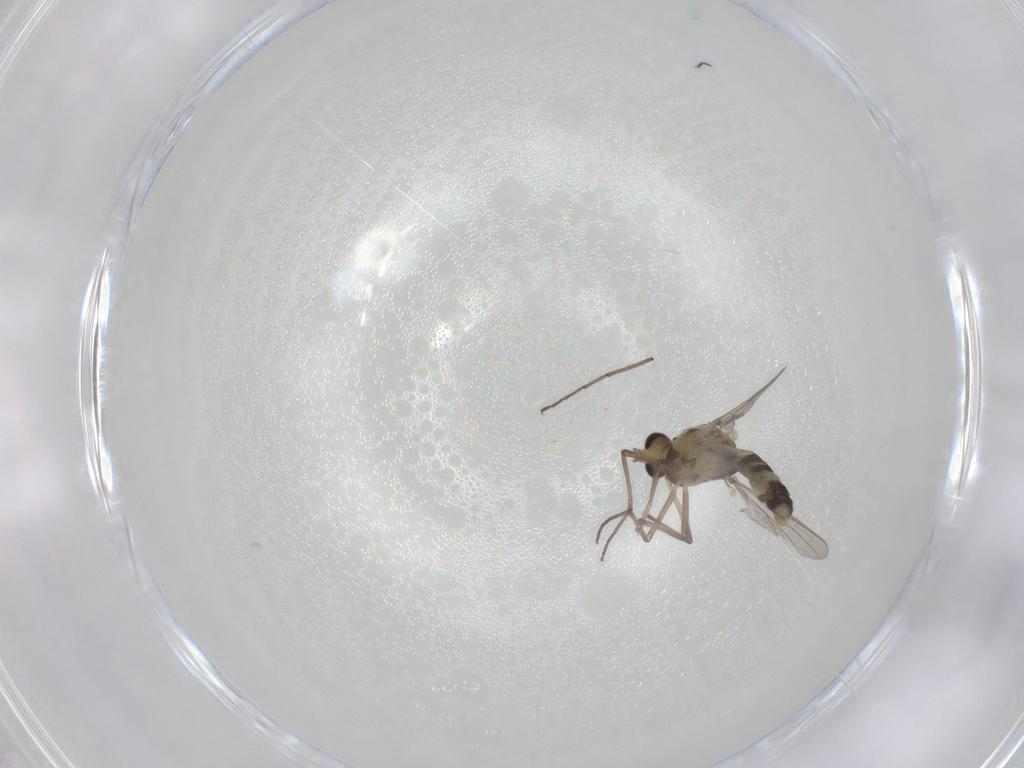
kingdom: Animalia
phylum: Arthropoda
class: Insecta
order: Diptera
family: Chironomidae
